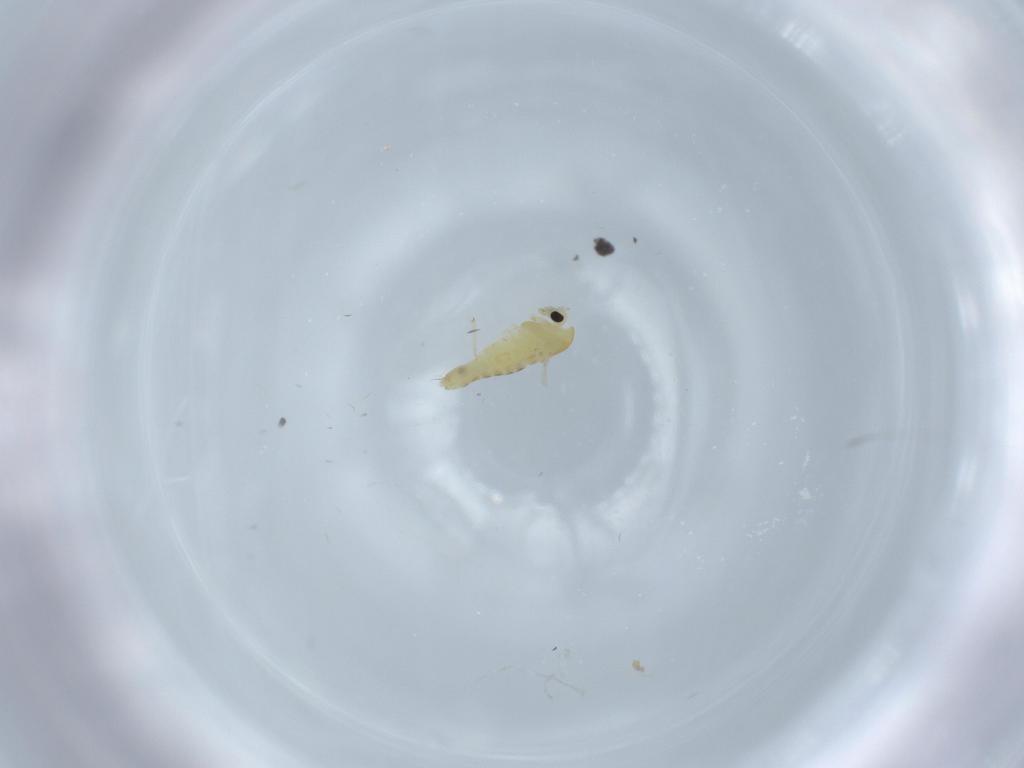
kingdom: Animalia
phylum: Arthropoda
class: Insecta
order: Diptera
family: Chironomidae
